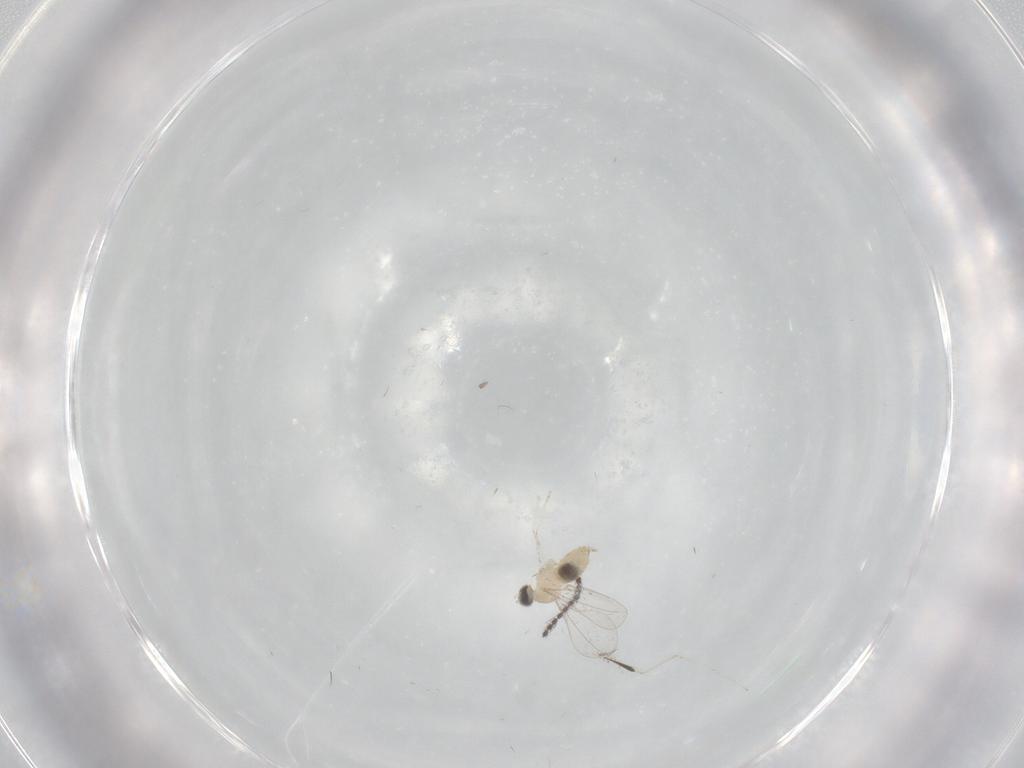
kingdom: Animalia
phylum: Arthropoda
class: Insecta
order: Diptera
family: Cecidomyiidae
